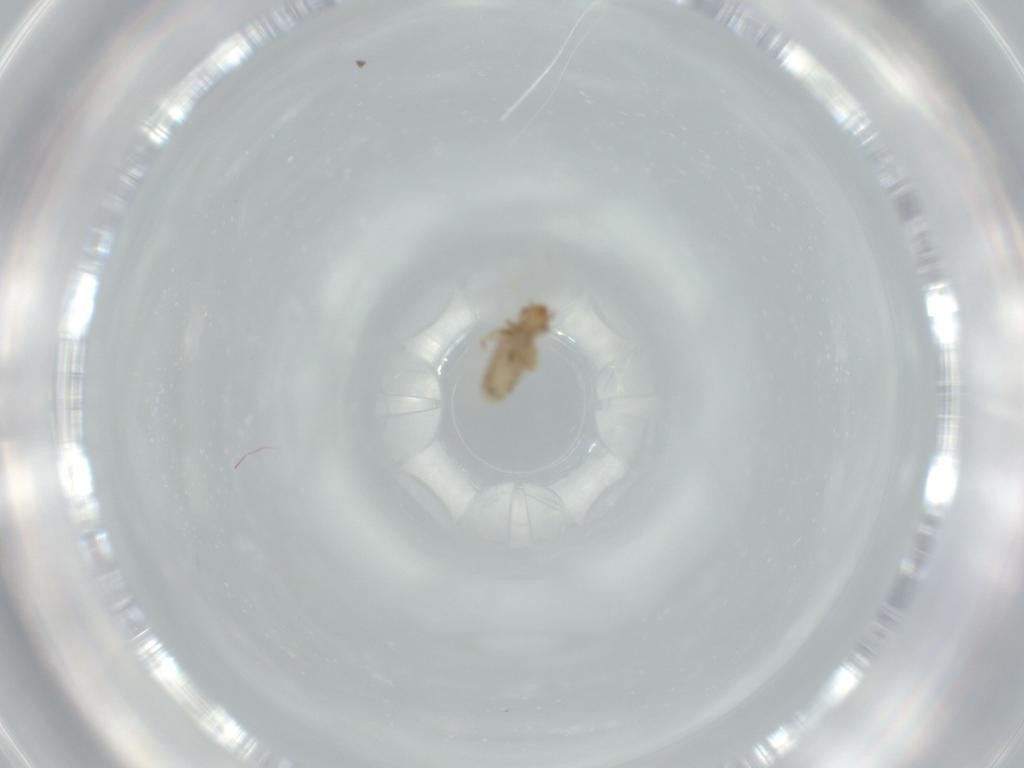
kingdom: Animalia
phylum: Arthropoda
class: Insecta
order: Psocodea
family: Liposcelididae
